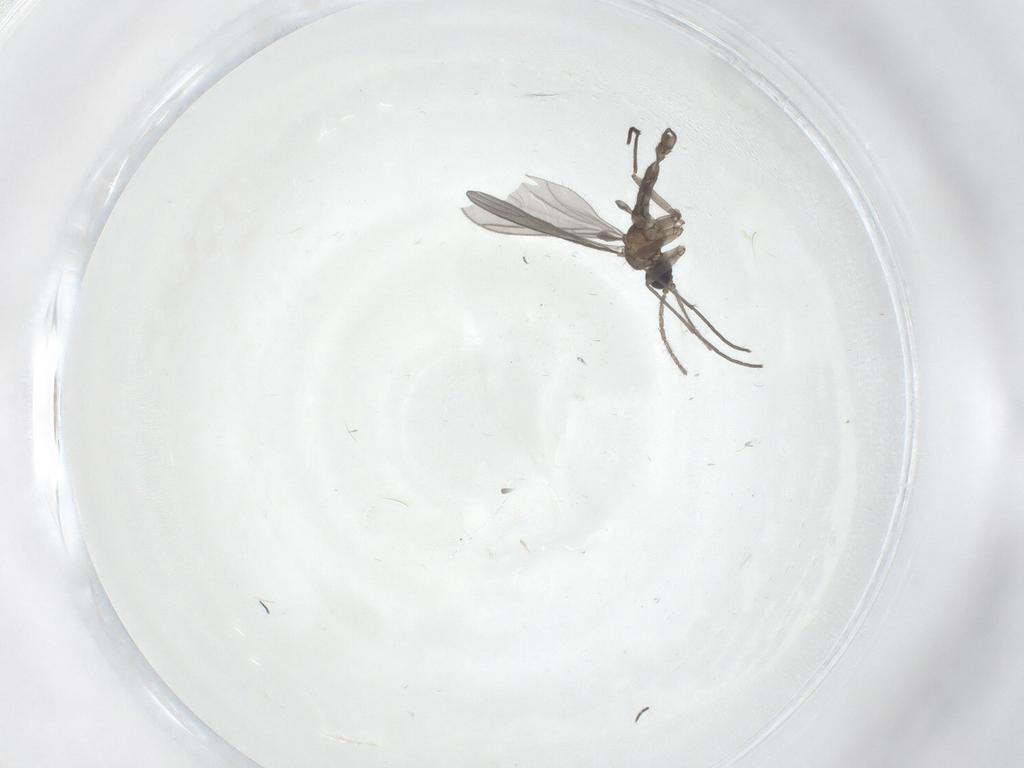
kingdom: Animalia
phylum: Arthropoda
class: Insecta
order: Diptera
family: Sciaridae
